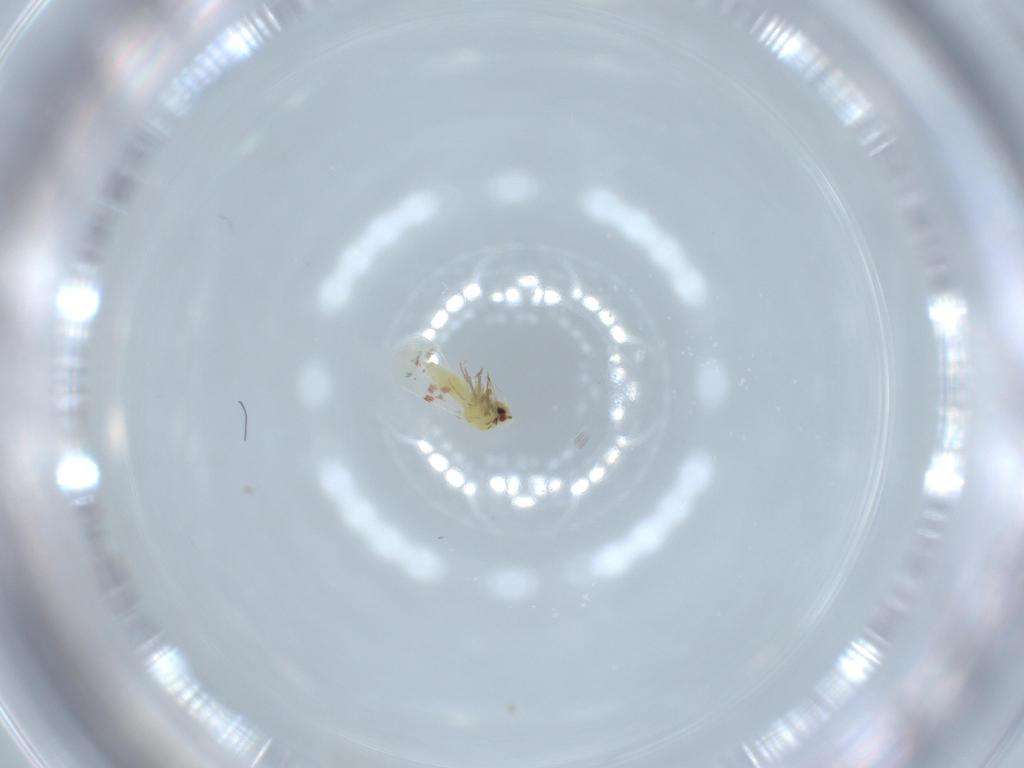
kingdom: Animalia
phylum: Arthropoda
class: Insecta
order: Hemiptera
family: Aleyrodidae
